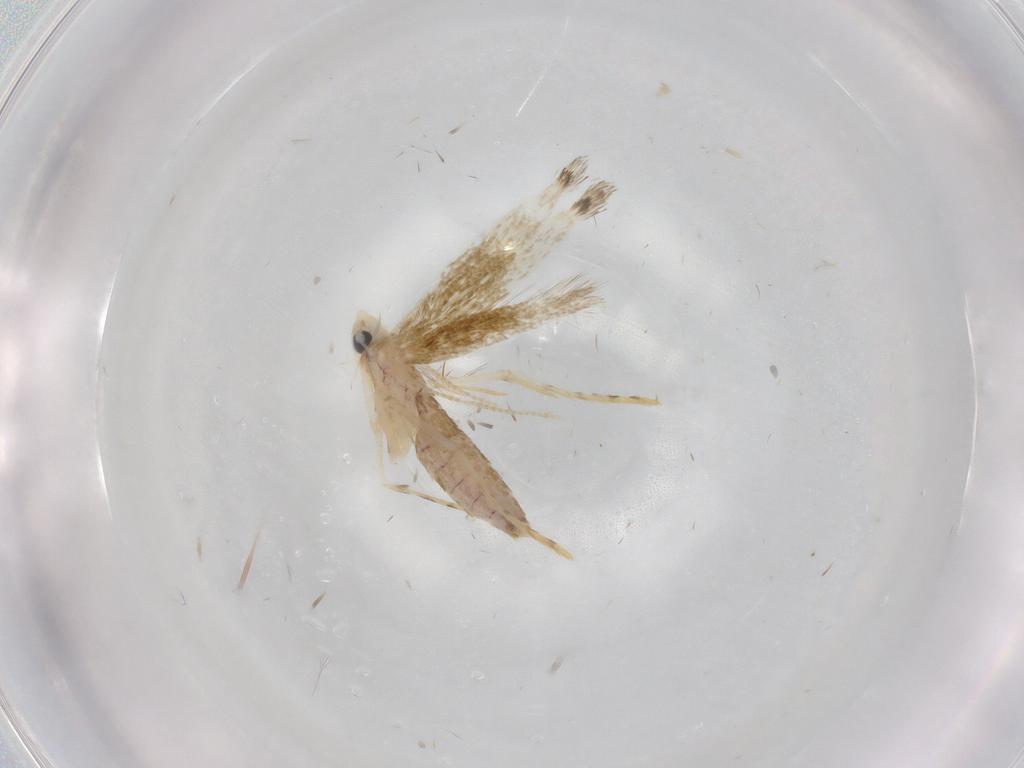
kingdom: Animalia
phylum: Arthropoda
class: Insecta
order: Lepidoptera
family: Lyonetiidae
